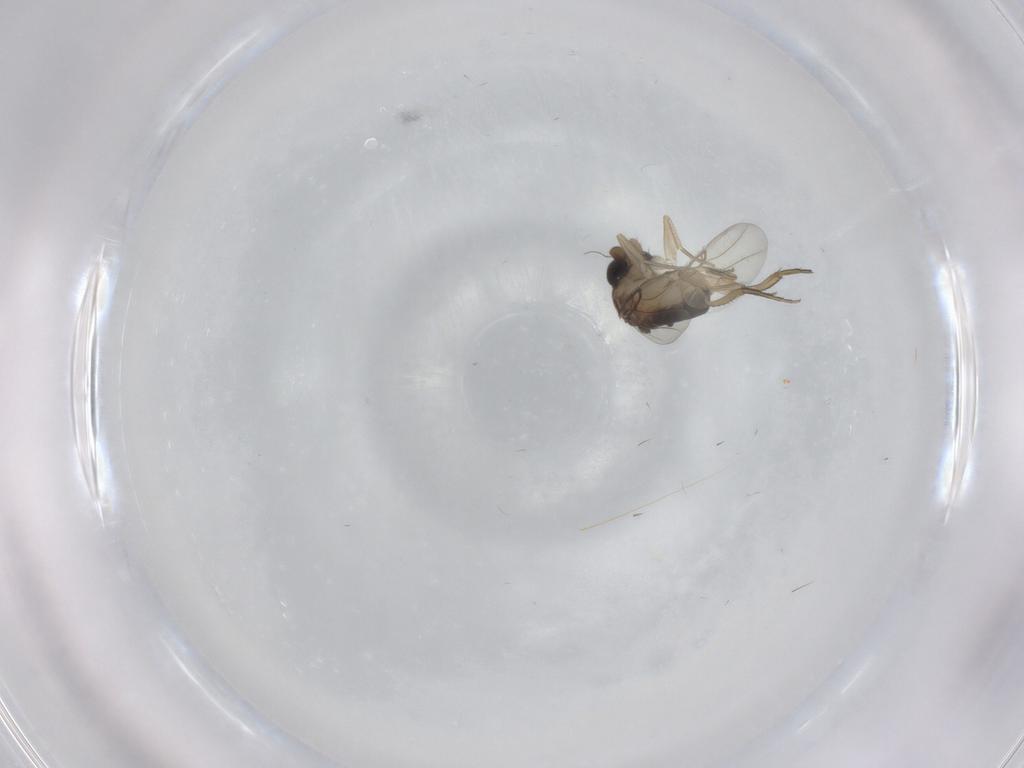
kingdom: Animalia
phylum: Arthropoda
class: Insecta
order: Diptera
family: Phoridae
